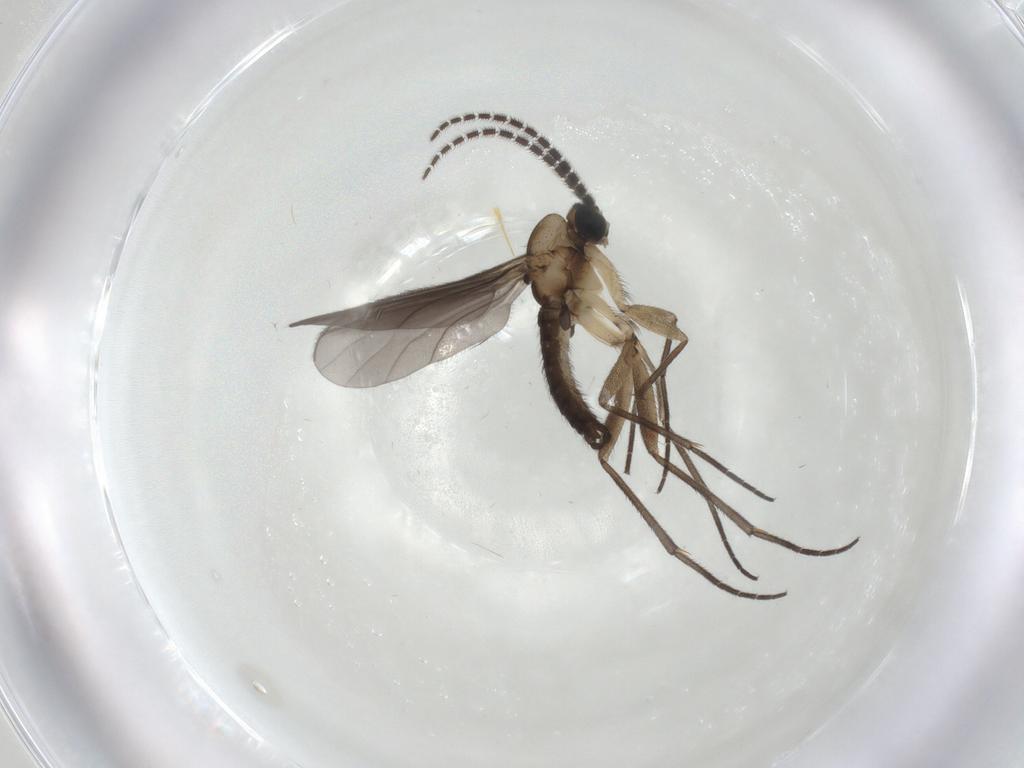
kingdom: Animalia
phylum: Arthropoda
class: Insecta
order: Diptera
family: Sciaridae
